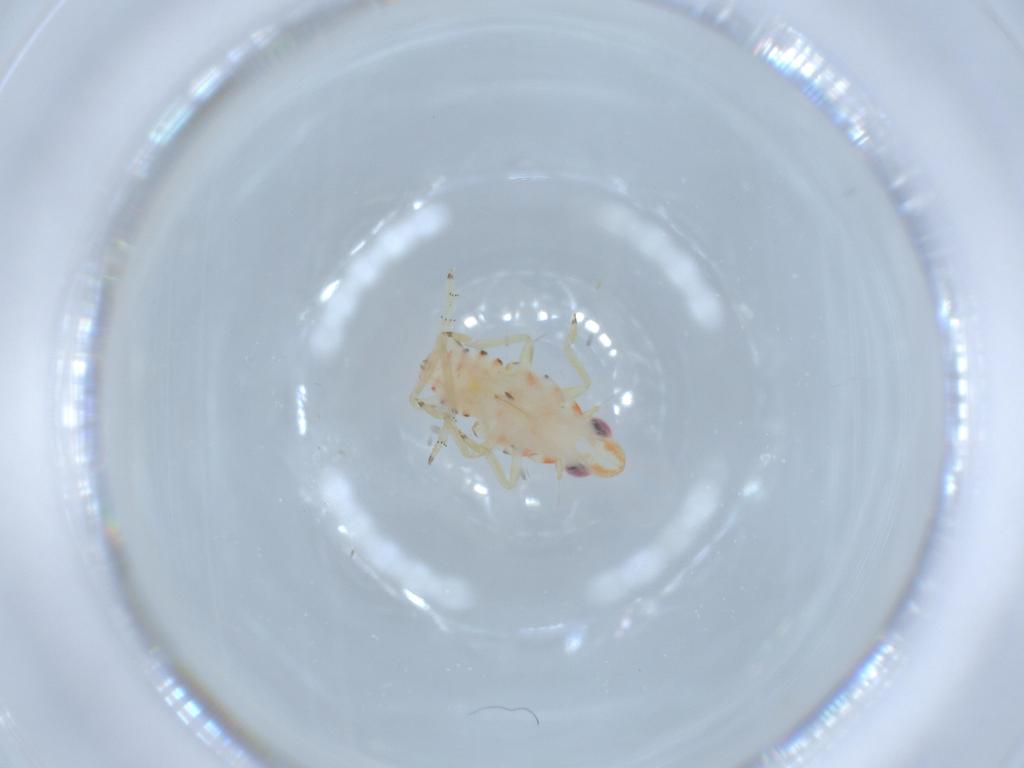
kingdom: Animalia
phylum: Arthropoda
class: Insecta
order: Hemiptera
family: Tropiduchidae
